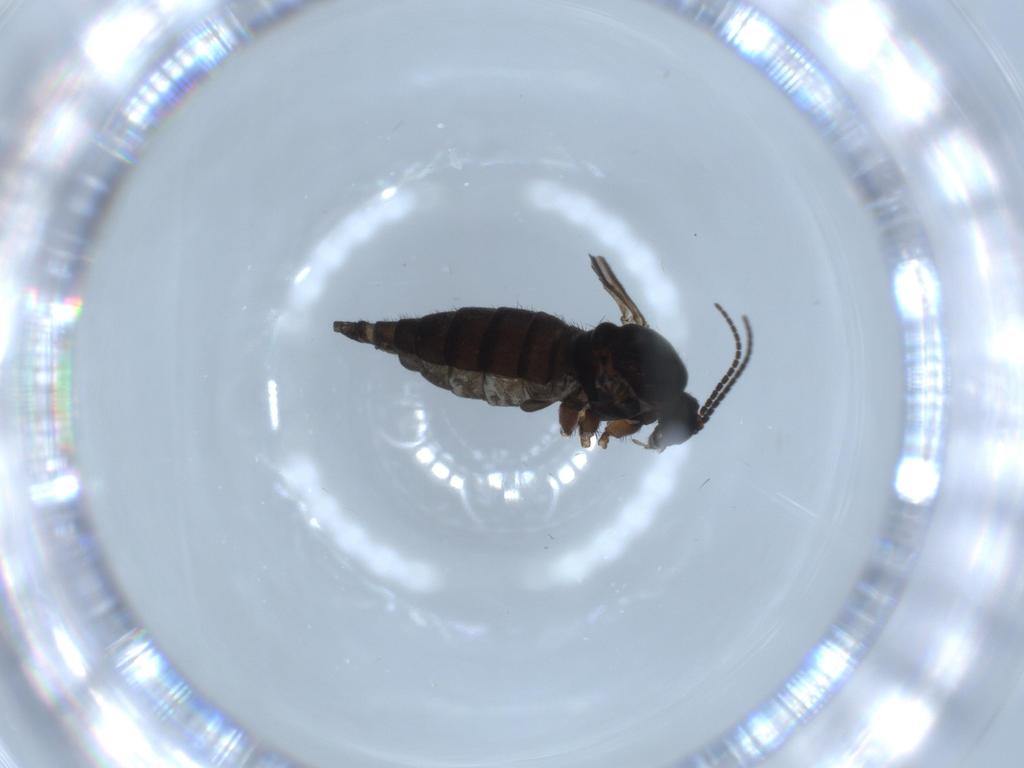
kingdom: Animalia
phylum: Arthropoda
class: Insecta
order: Diptera
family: Sciaridae
